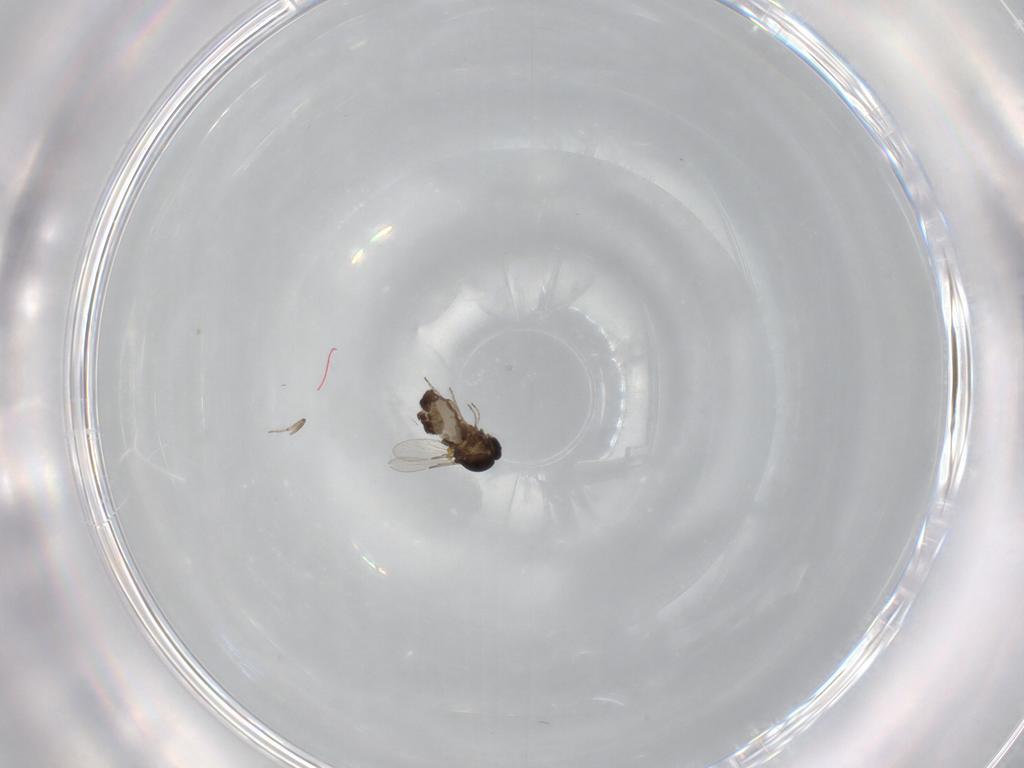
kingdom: Animalia
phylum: Arthropoda
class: Insecta
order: Diptera
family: Ceratopogonidae
